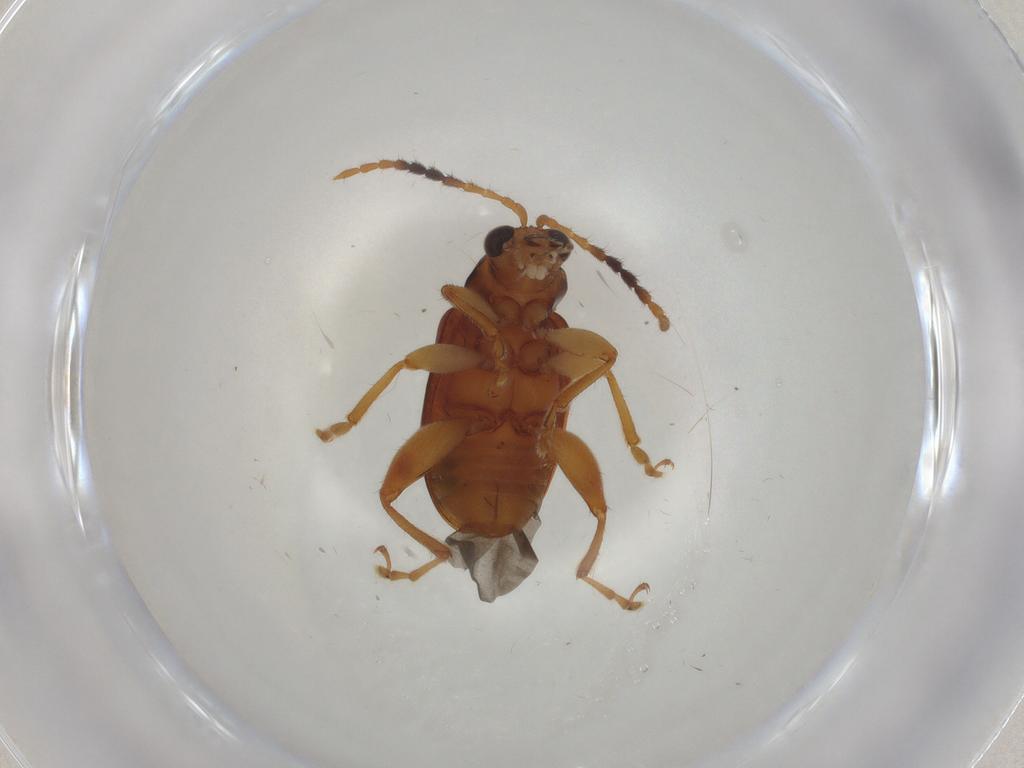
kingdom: Animalia
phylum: Arthropoda
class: Insecta
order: Coleoptera
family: Chrysomelidae
